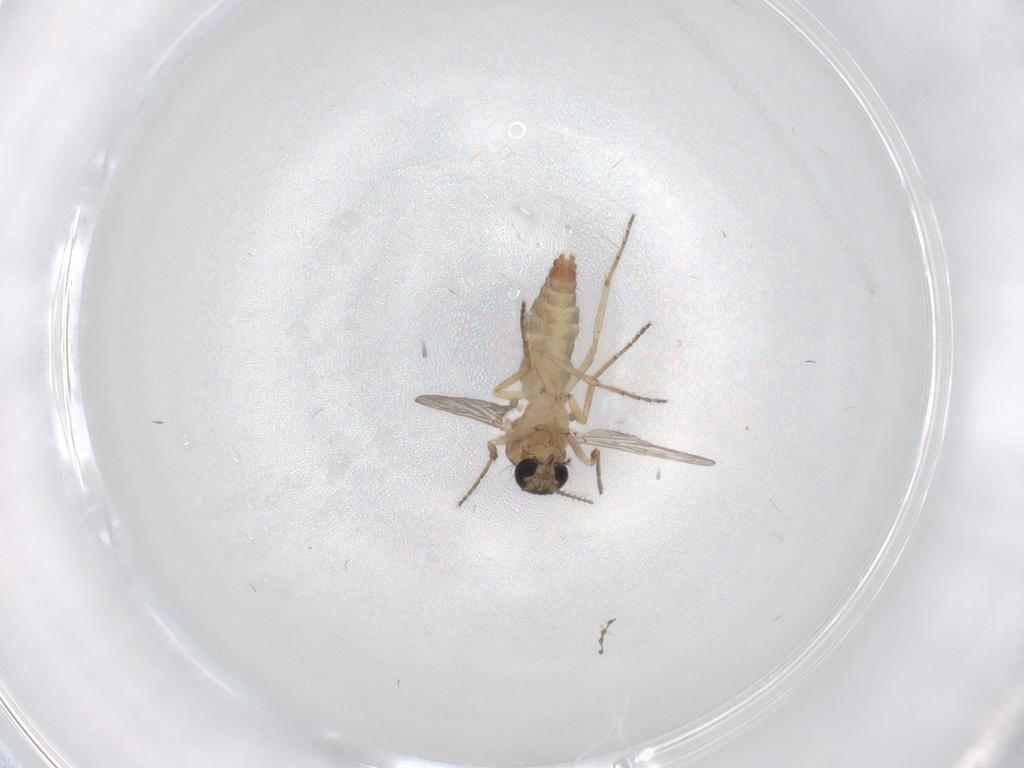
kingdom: Animalia
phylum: Arthropoda
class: Insecta
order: Diptera
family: Ceratopogonidae
